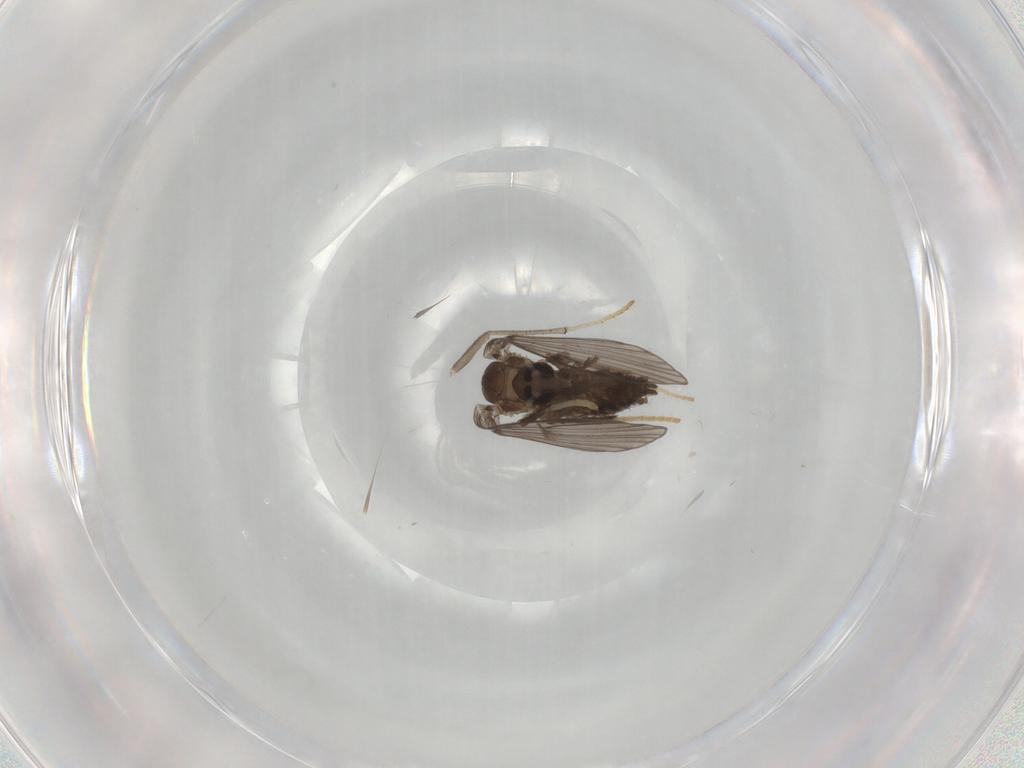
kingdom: Animalia
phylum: Arthropoda
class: Insecta
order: Diptera
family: Psychodidae
